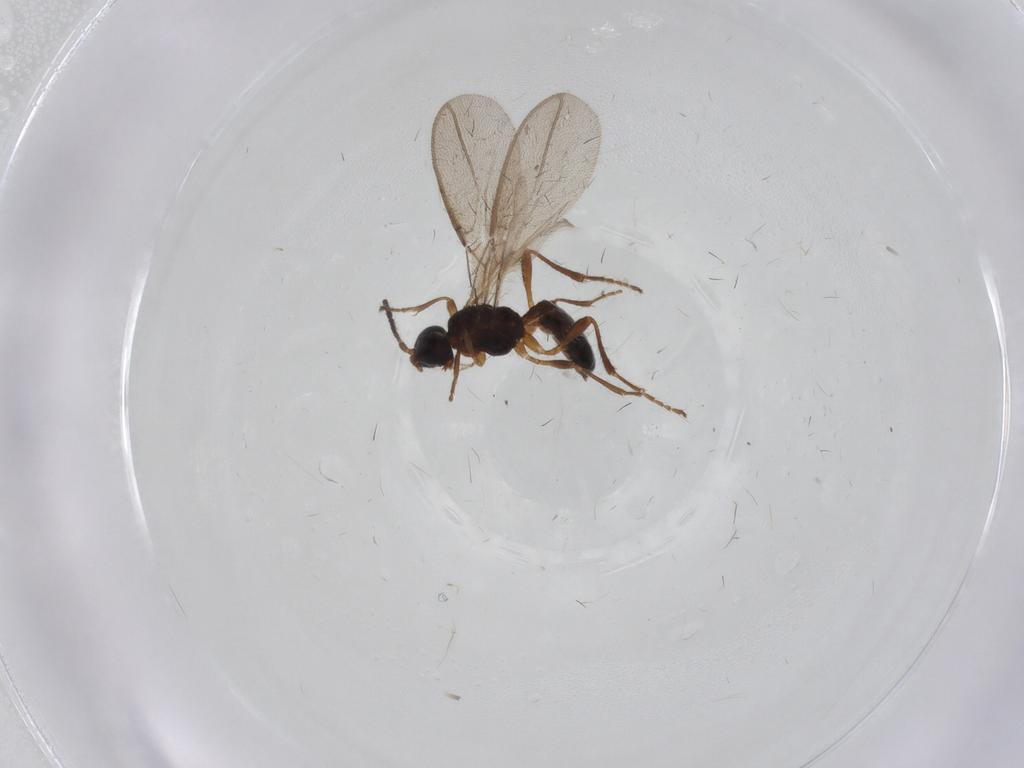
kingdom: Animalia
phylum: Arthropoda
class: Insecta
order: Hymenoptera
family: Braconidae
